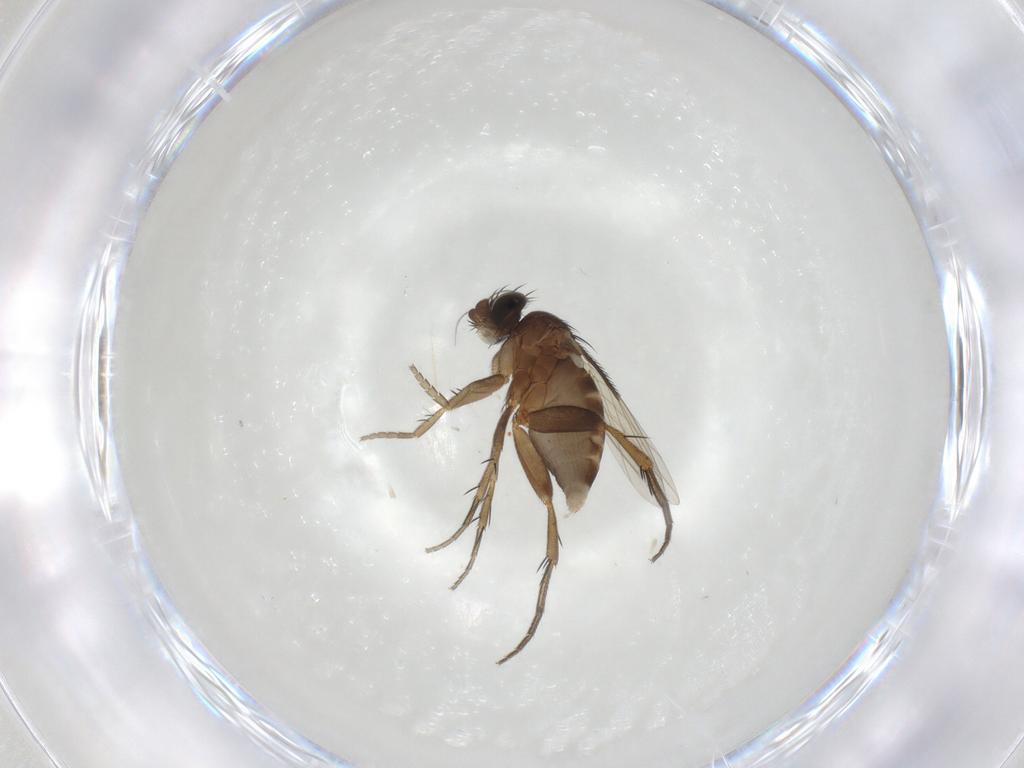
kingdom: Animalia
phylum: Arthropoda
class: Insecta
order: Diptera
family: Phoridae
